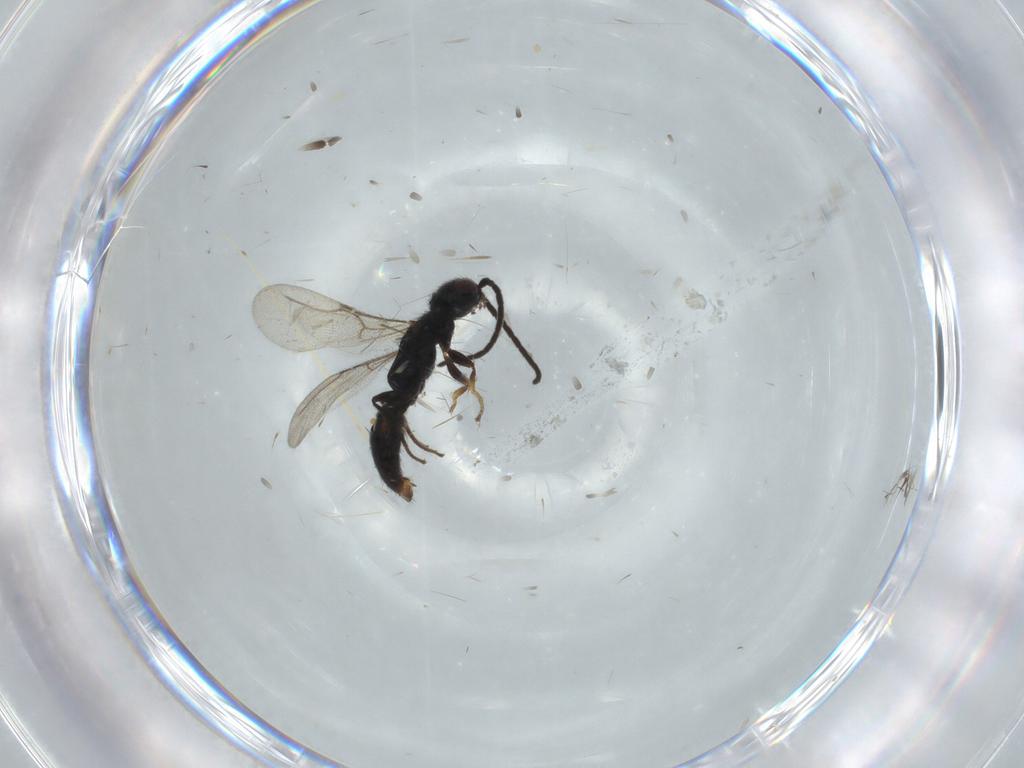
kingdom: Animalia
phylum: Arthropoda
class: Insecta
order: Hymenoptera
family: Bethylidae
